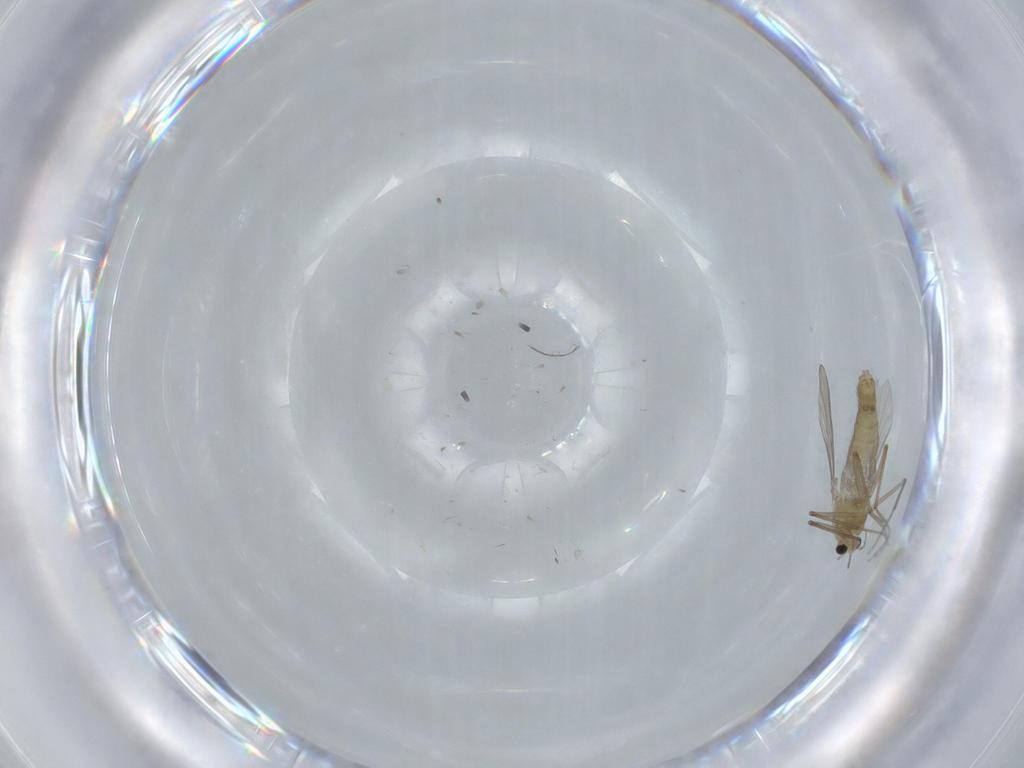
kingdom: Animalia
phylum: Arthropoda
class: Insecta
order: Diptera
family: Chironomidae
